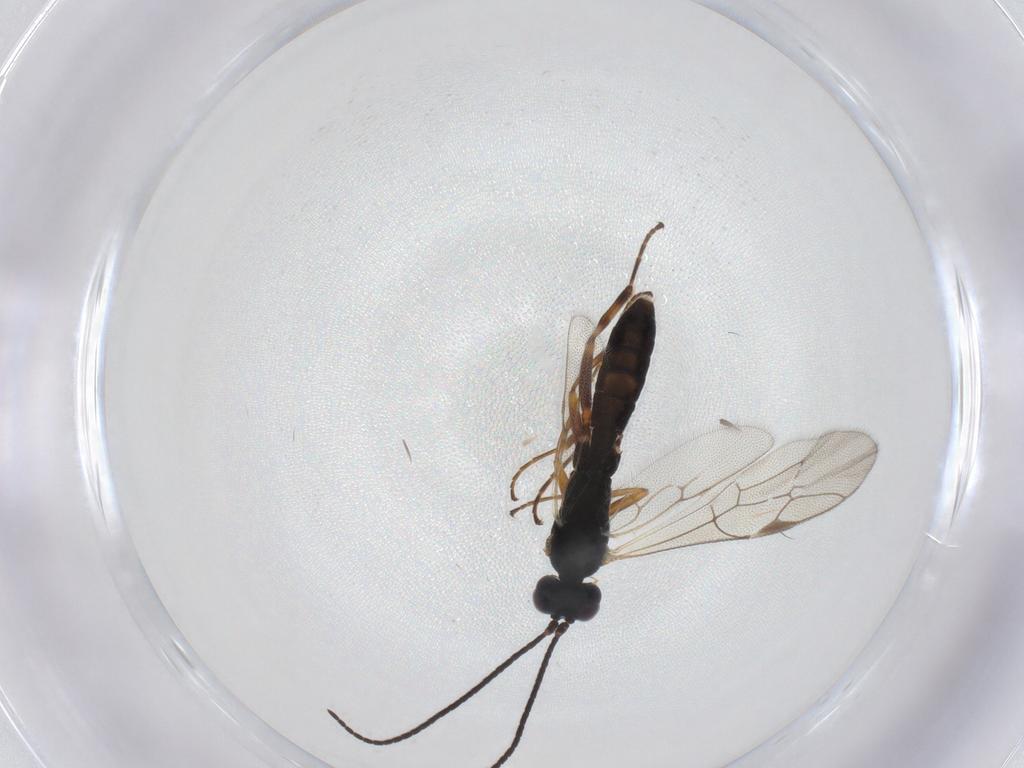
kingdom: Animalia
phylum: Arthropoda
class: Insecta
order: Hymenoptera
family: Ichneumonidae
